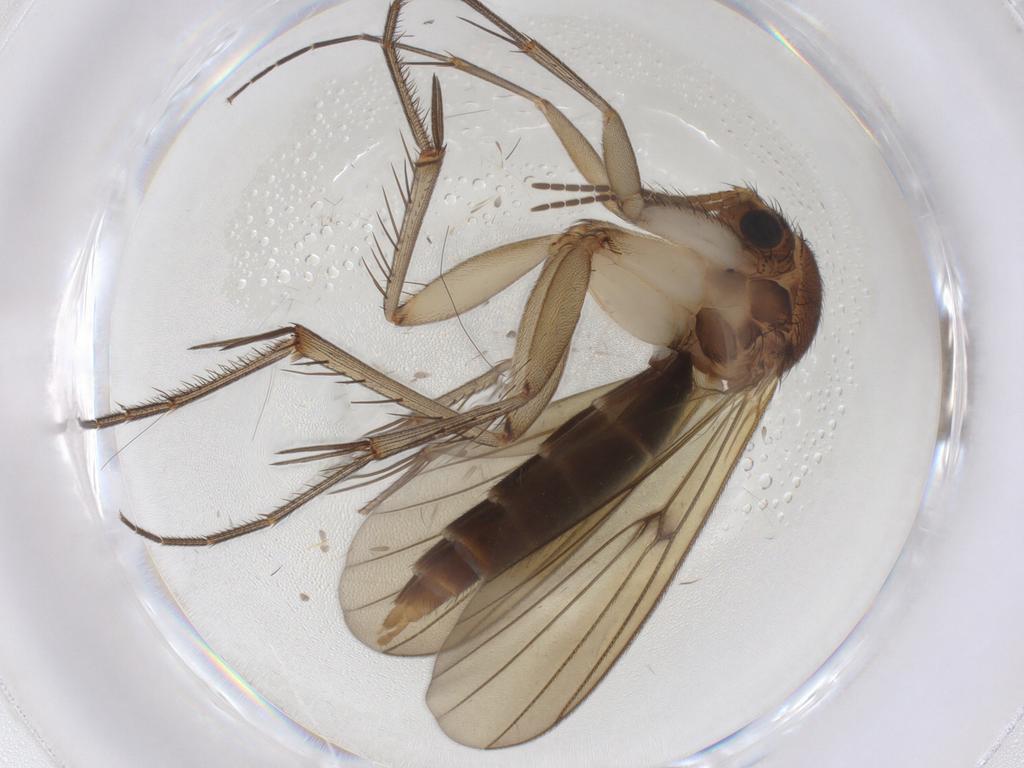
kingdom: Animalia
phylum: Arthropoda
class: Insecta
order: Diptera
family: Mycetophilidae
